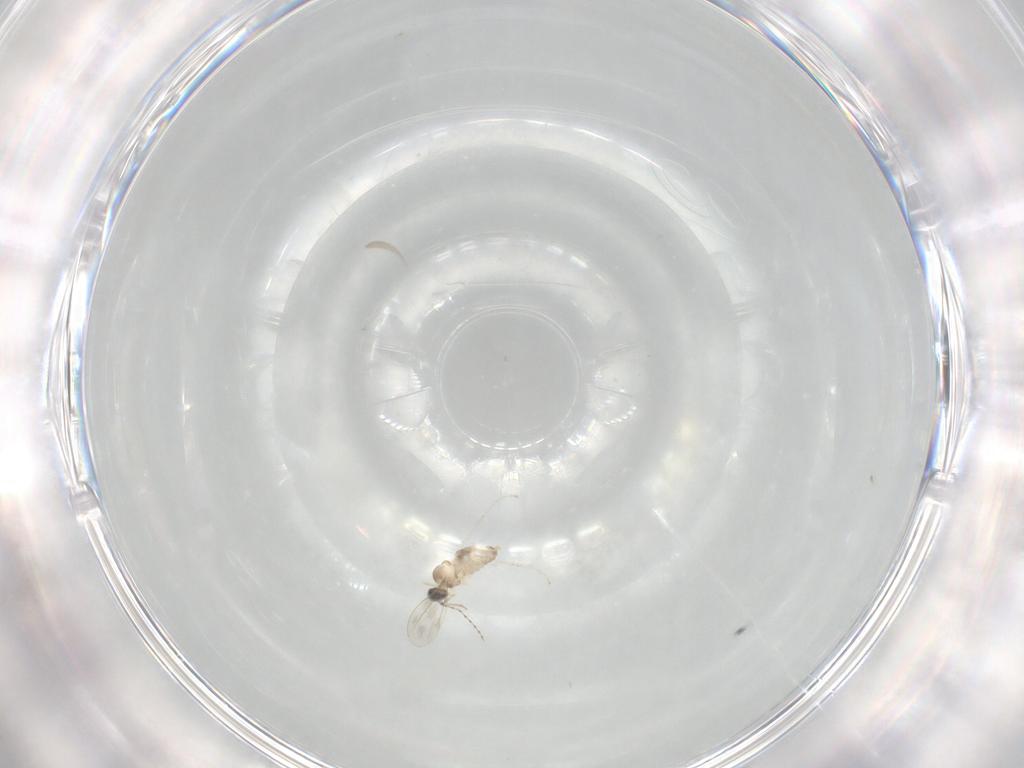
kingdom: Animalia
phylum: Arthropoda
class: Insecta
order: Diptera
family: Cecidomyiidae
